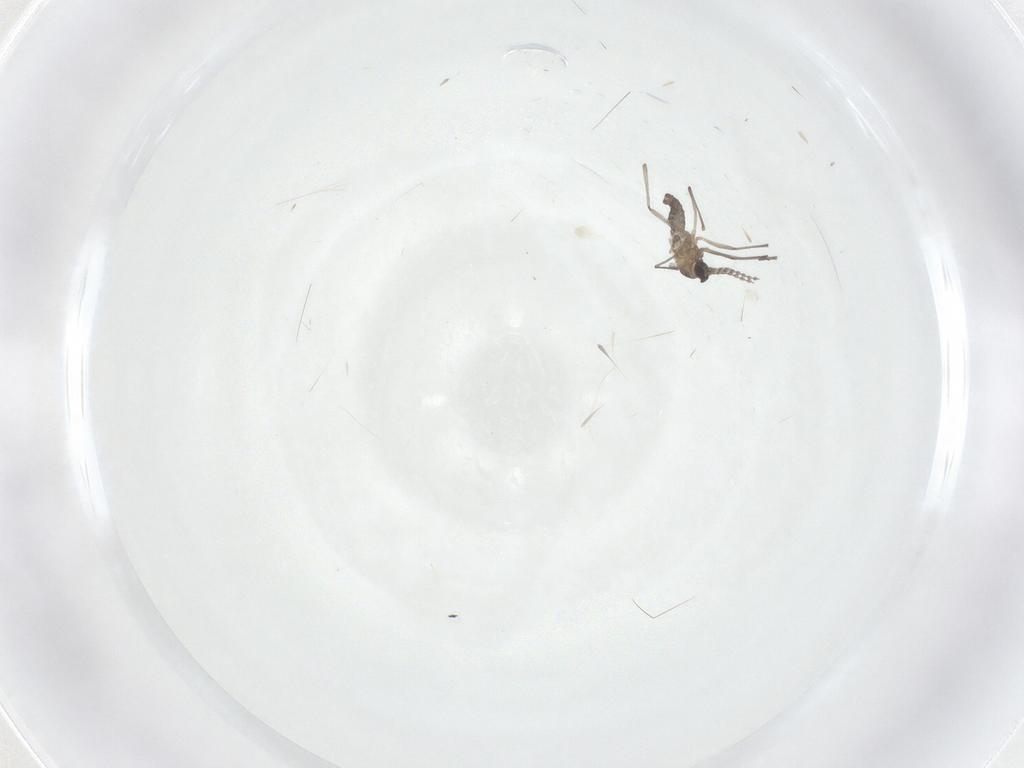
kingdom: Animalia
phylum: Arthropoda
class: Insecta
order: Diptera
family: Cecidomyiidae
